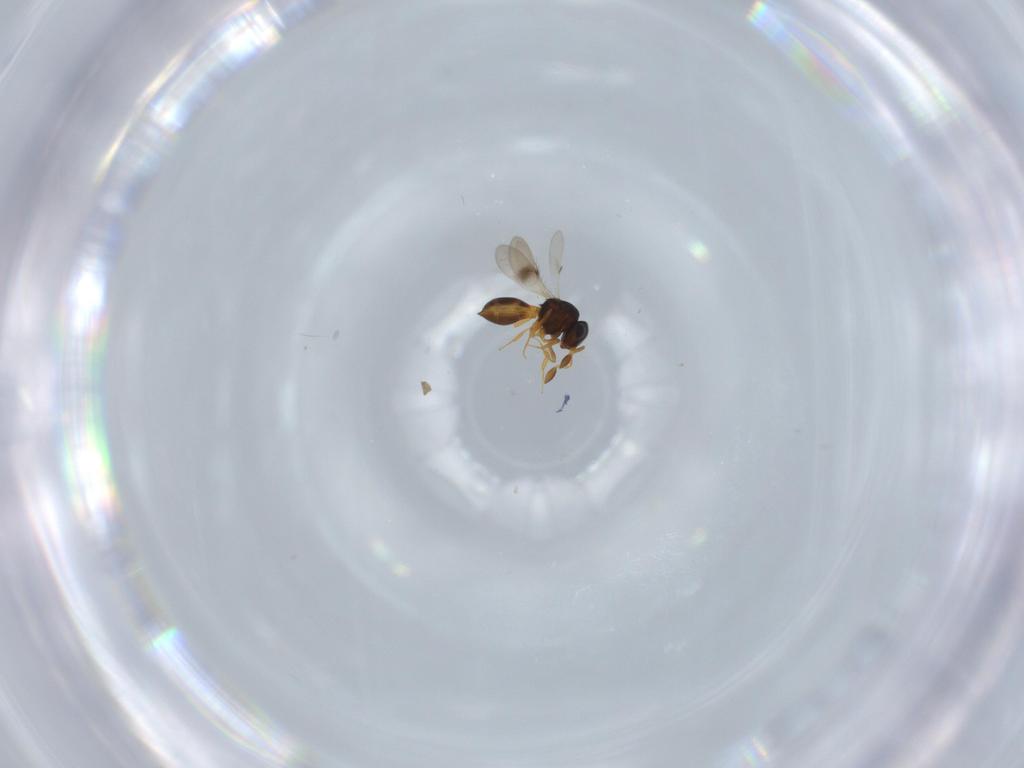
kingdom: Animalia
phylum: Arthropoda
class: Insecta
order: Hymenoptera
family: Scelionidae
